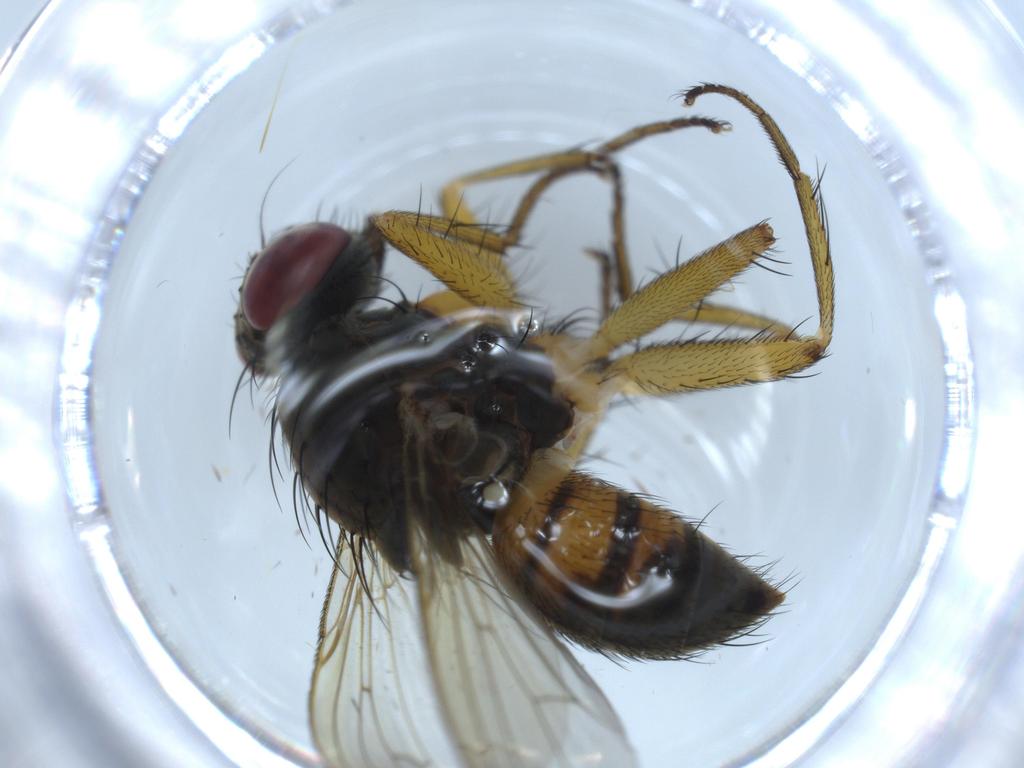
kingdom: Animalia
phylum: Arthropoda
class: Insecta
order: Diptera
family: Muscidae
